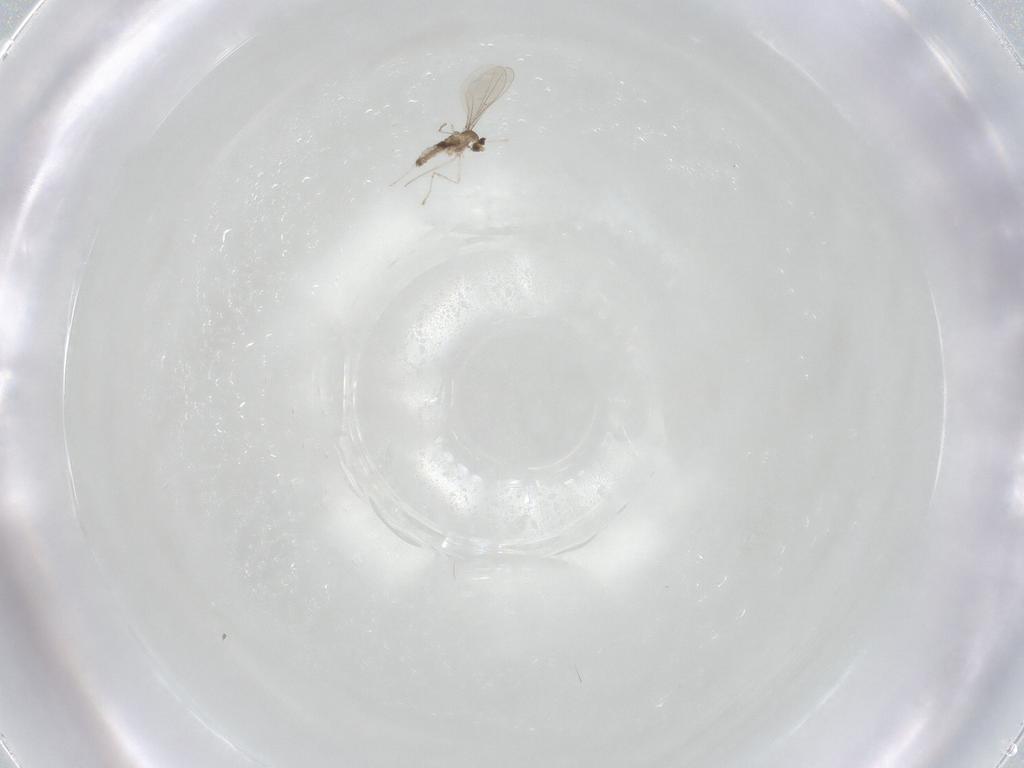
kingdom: Animalia
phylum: Arthropoda
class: Insecta
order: Diptera
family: Cecidomyiidae
